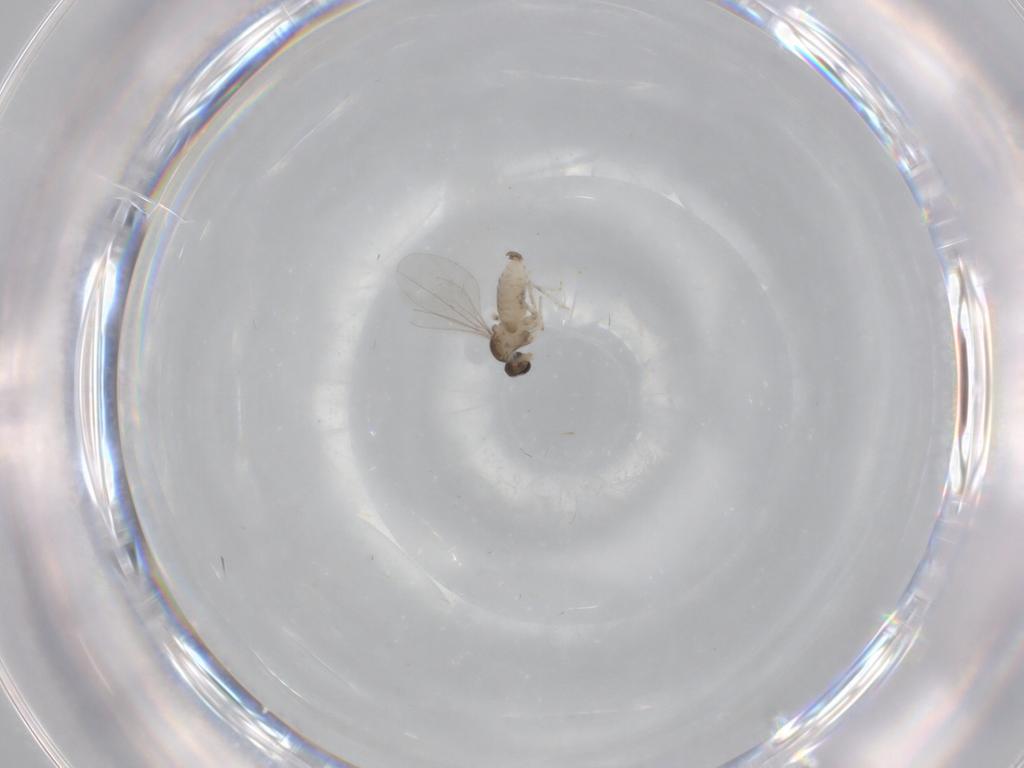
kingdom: Animalia
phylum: Arthropoda
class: Insecta
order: Diptera
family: Cecidomyiidae
